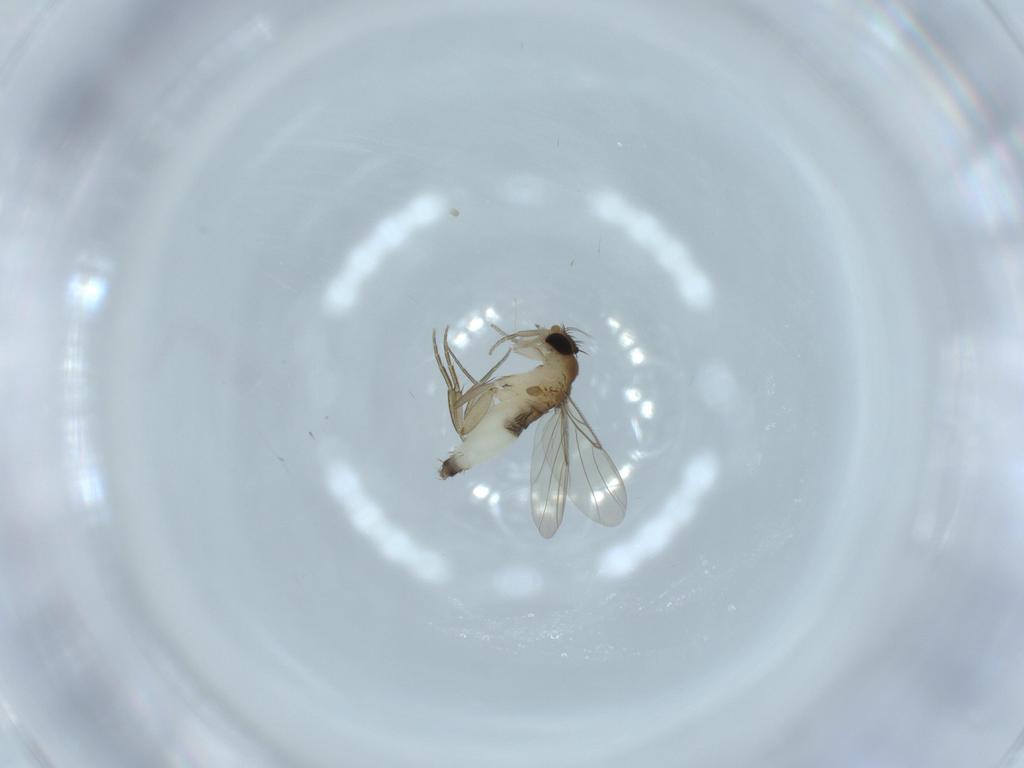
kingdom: Animalia
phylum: Arthropoda
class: Insecta
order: Diptera
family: Phoridae
